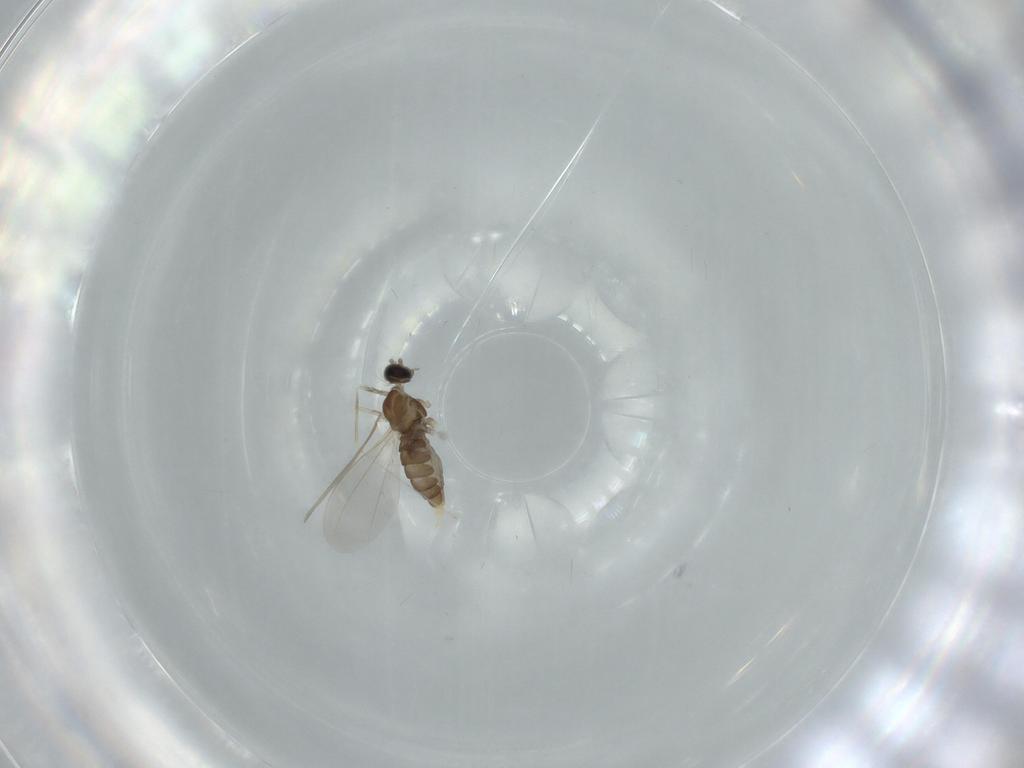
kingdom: Animalia
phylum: Arthropoda
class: Insecta
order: Diptera
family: Cecidomyiidae
